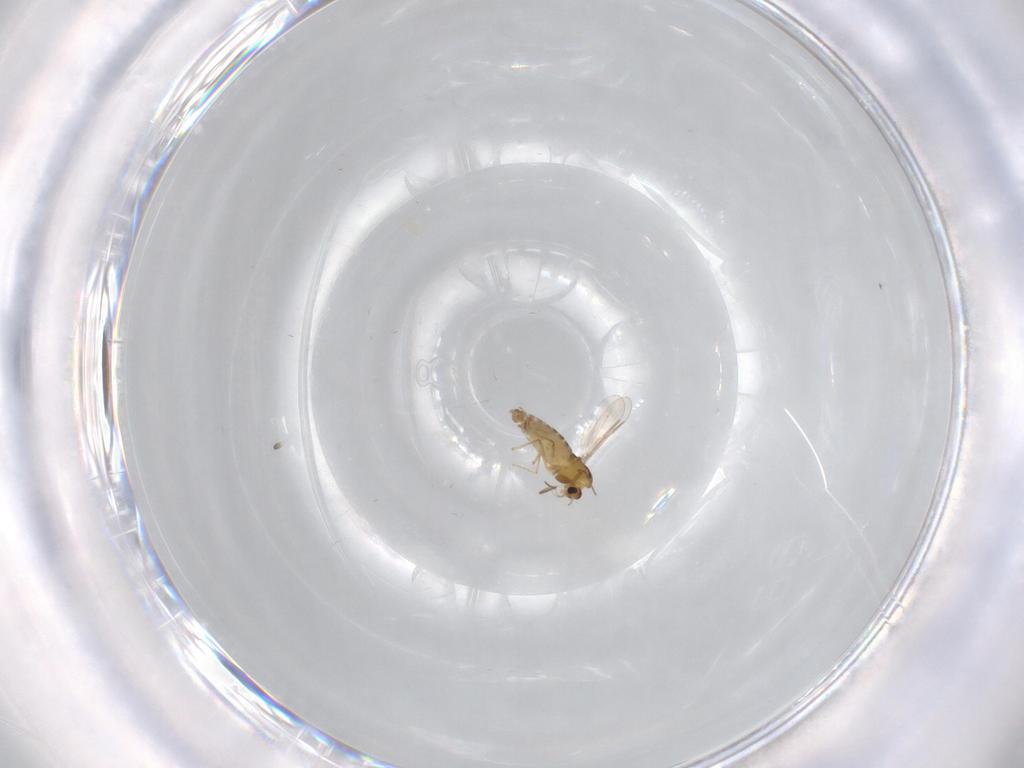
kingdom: Animalia
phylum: Arthropoda
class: Insecta
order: Diptera
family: Chironomidae
